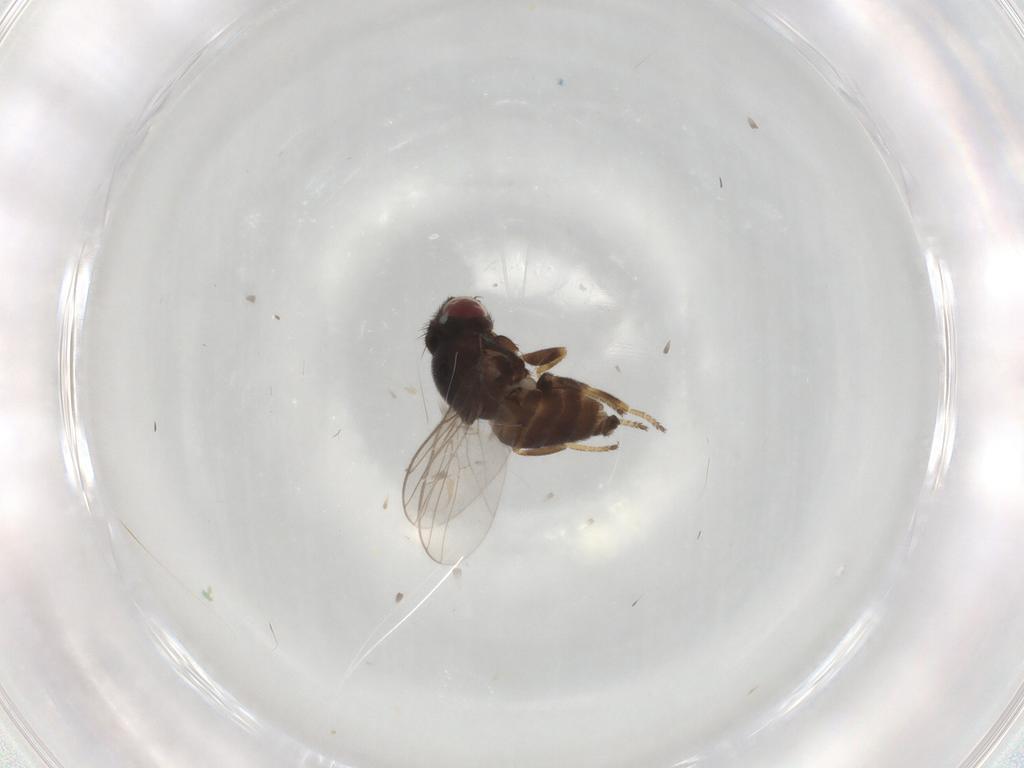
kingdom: Animalia
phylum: Arthropoda
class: Insecta
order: Diptera
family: Chloropidae
